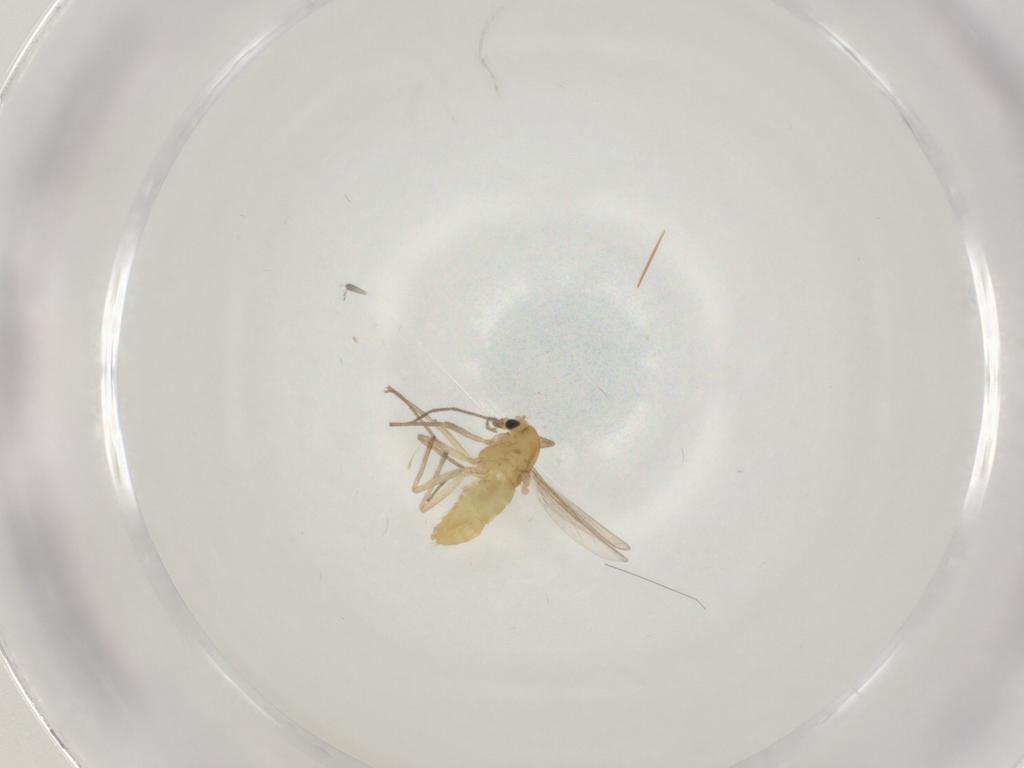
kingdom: Animalia
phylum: Arthropoda
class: Insecta
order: Diptera
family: Chironomidae
